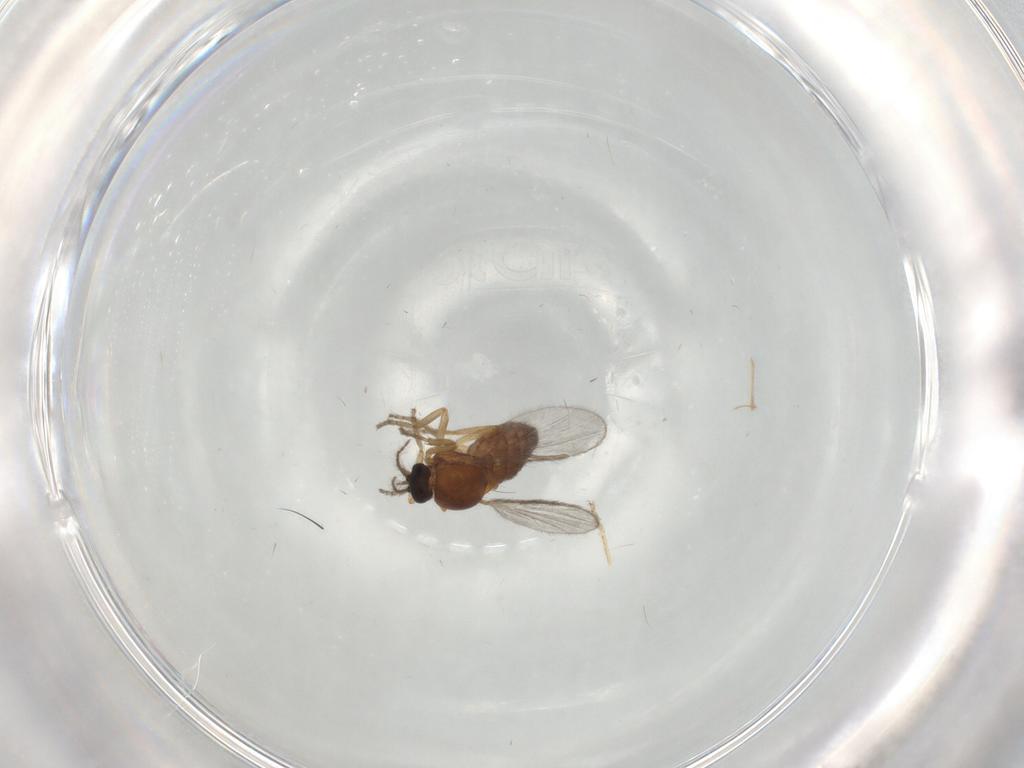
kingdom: Animalia
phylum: Arthropoda
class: Insecta
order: Diptera
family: Ceratopogonidae
